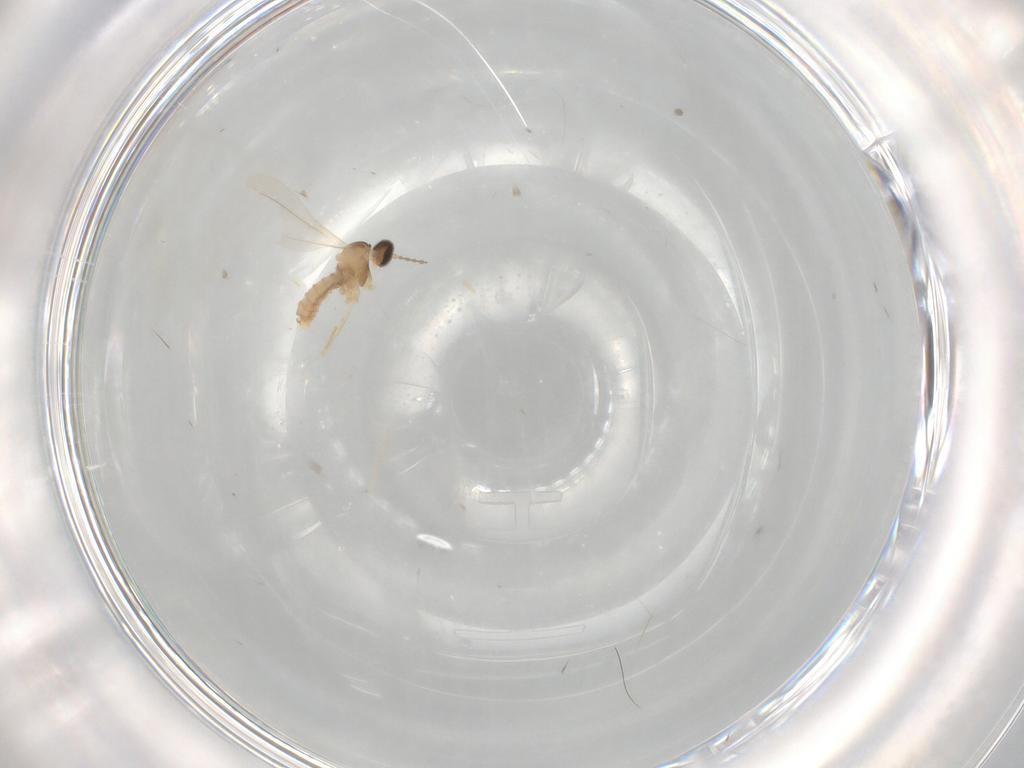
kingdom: Animalia
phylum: Arthropoda
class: Insecta
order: Diptera
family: Cecidomyiidae
